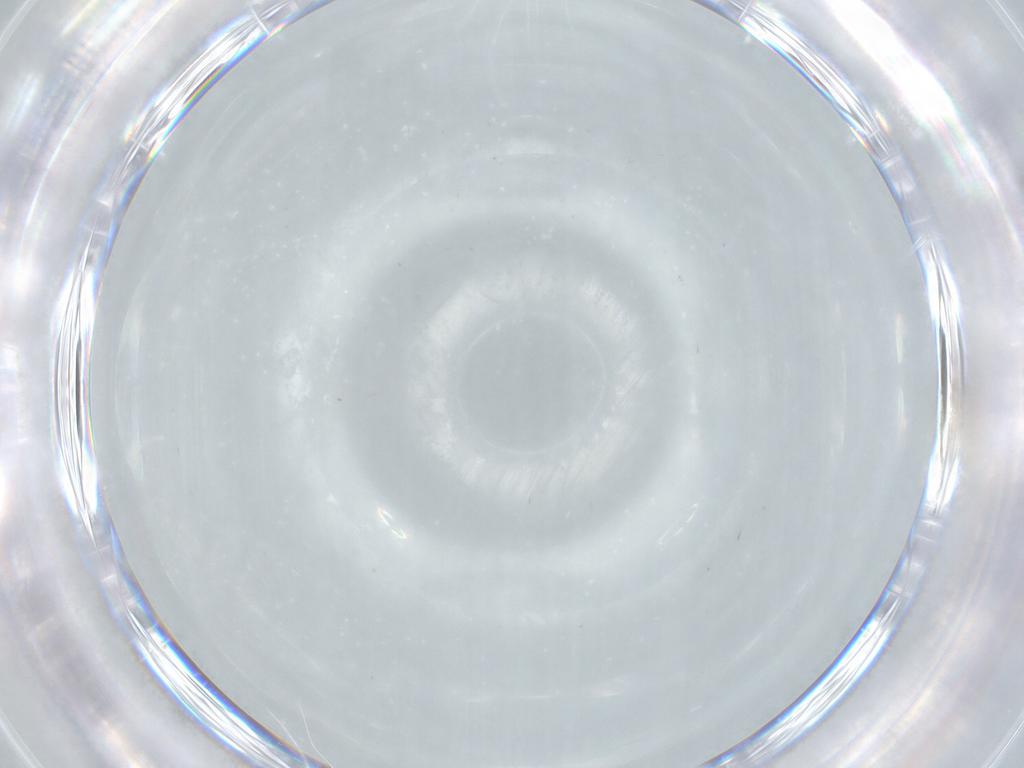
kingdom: Animalia
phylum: Arthropoda
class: Insecta
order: Diptera
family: Cecidomyiidae
